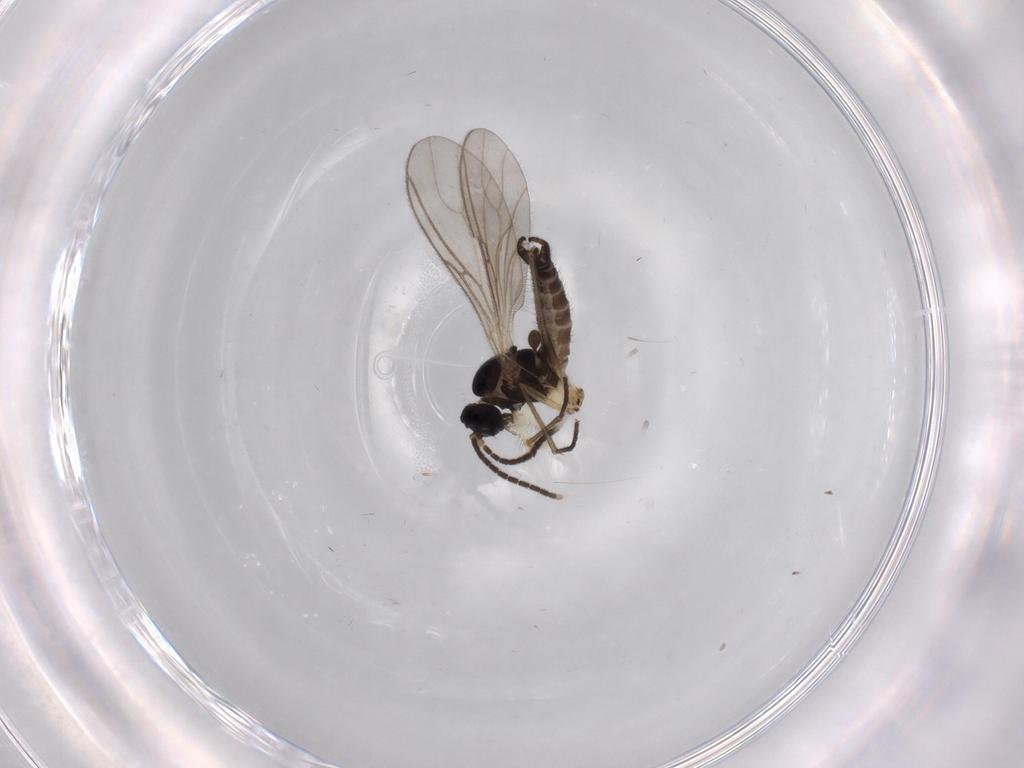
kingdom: Animalia
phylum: Arthropoda
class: Insecta
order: Diptera
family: Sciaridae
